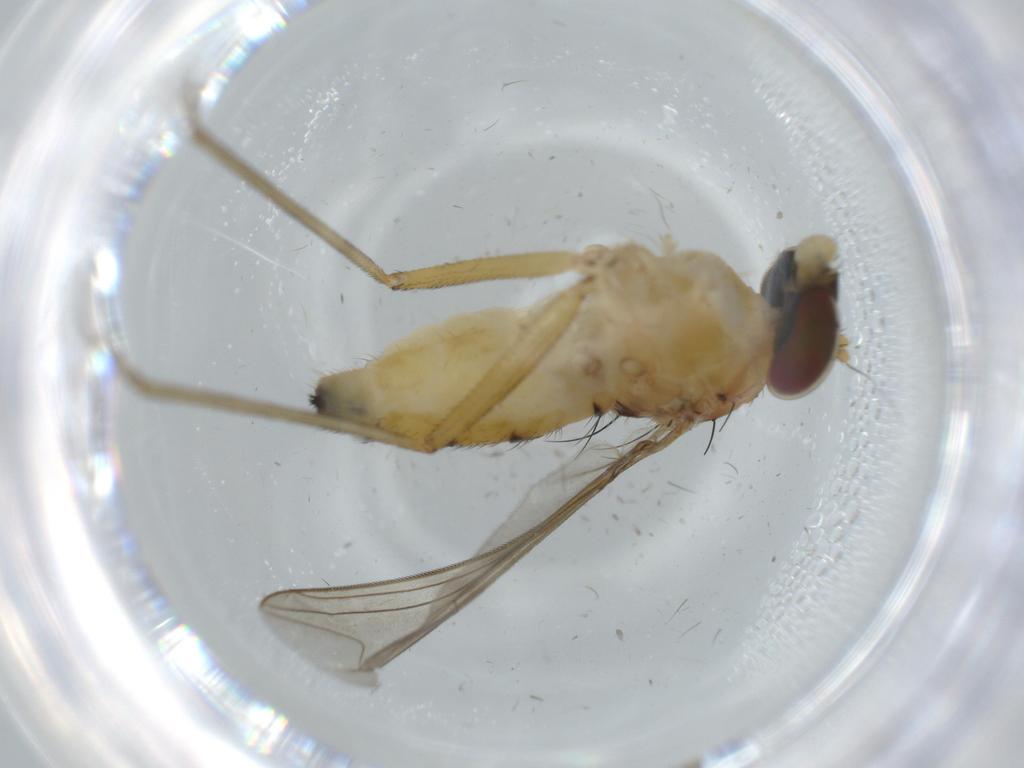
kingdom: Animalia
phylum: Arthropoda
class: Insecta
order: Diptera
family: Dolichopodidae
